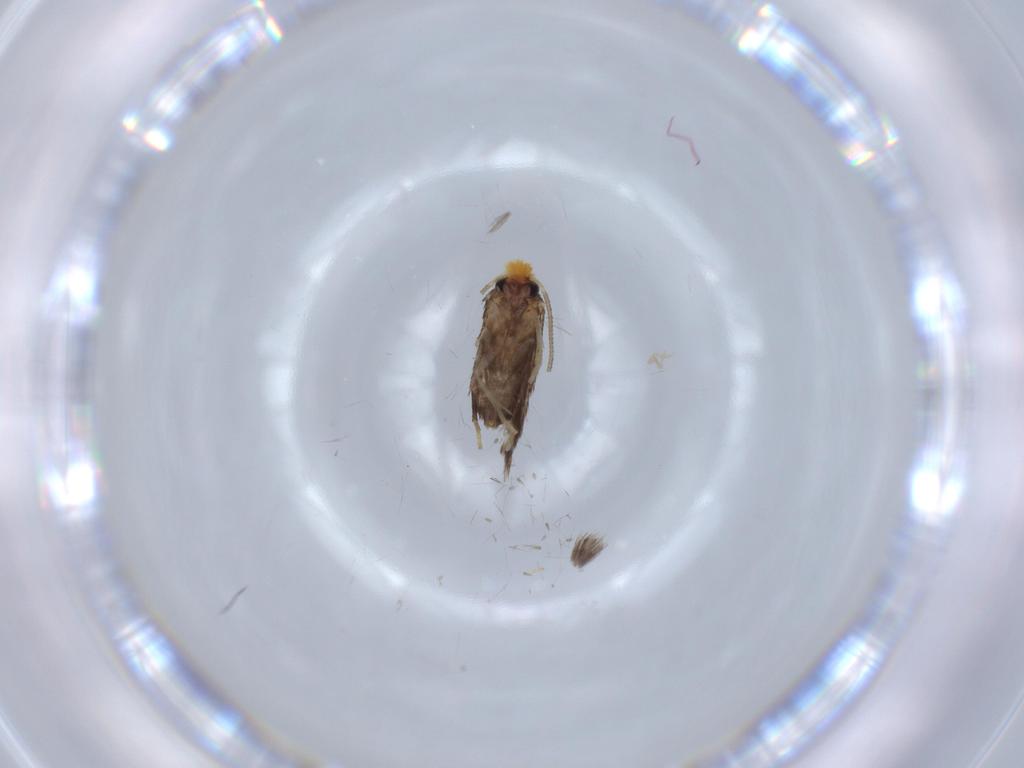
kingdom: Animalia
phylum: Arthropoda
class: Insecta
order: Lepidoptera
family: Nepticulidae
